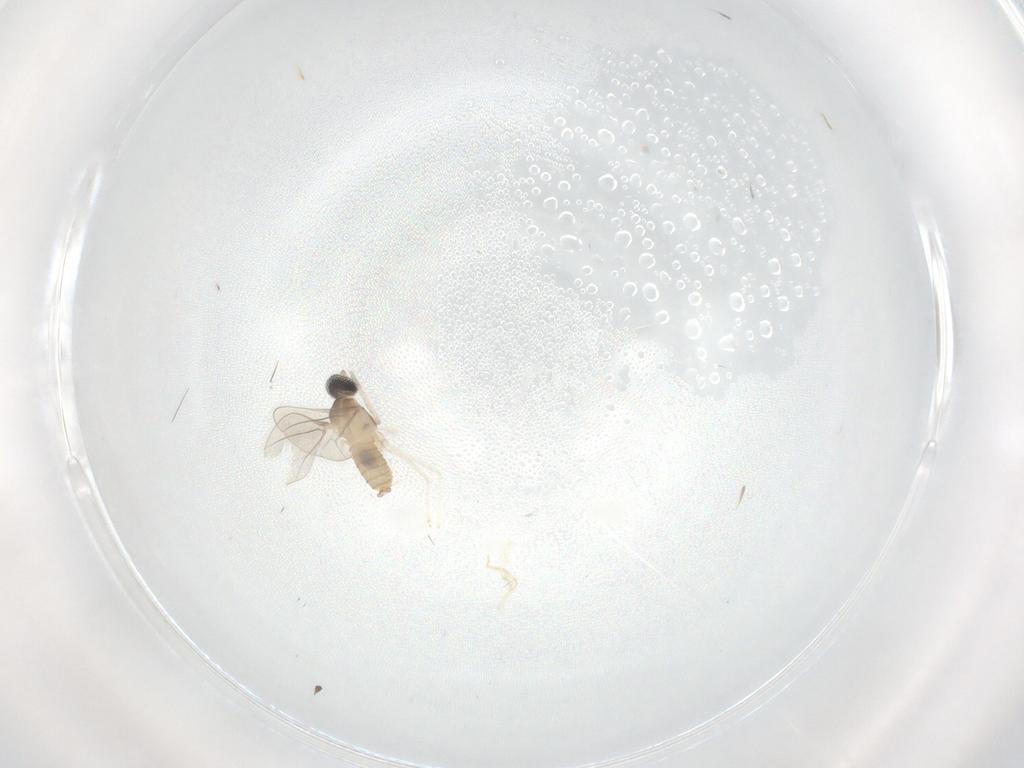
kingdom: Animalia
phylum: Arthropoda
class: Insecta
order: Diptera
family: Cecidomyiidae
